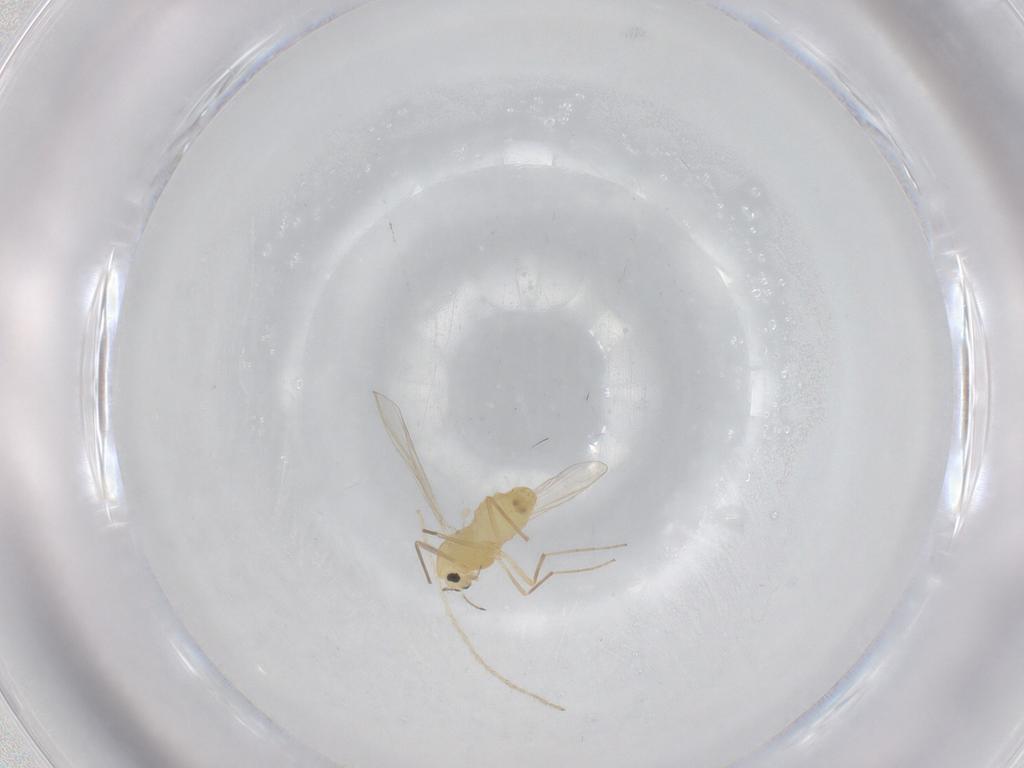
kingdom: Animalia
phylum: Arthropoda
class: Insecta
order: Diptera
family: Chironomidae
